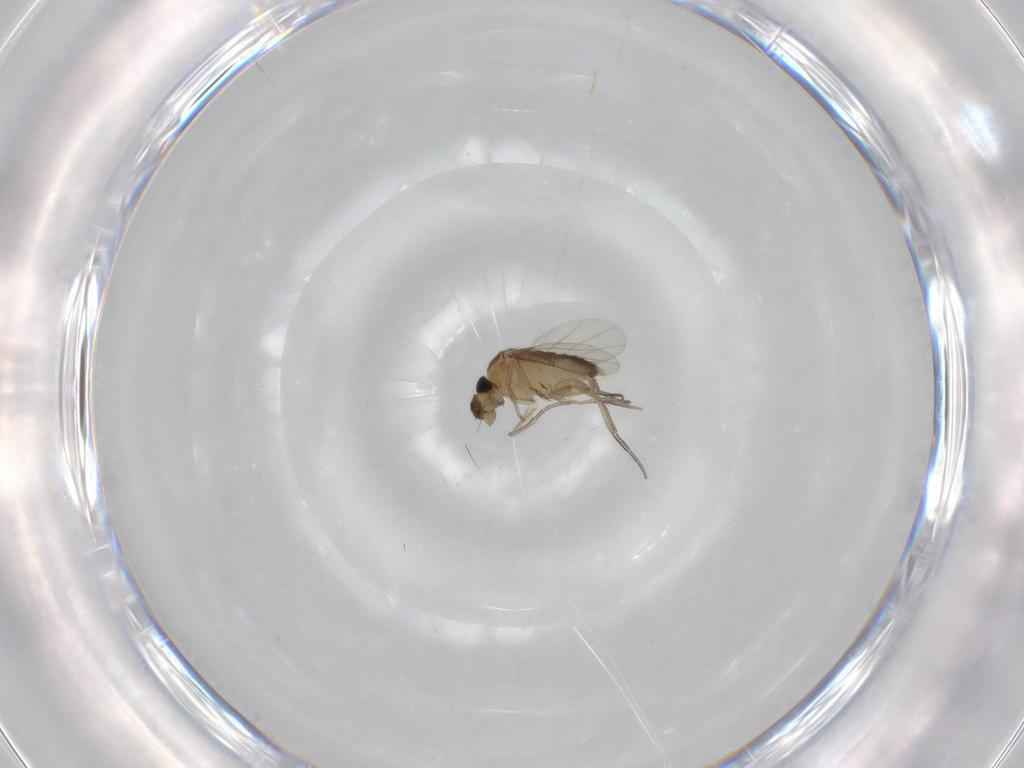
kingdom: Animalia
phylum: Arthropoda
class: Insecta
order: Diptera
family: Phoridae
